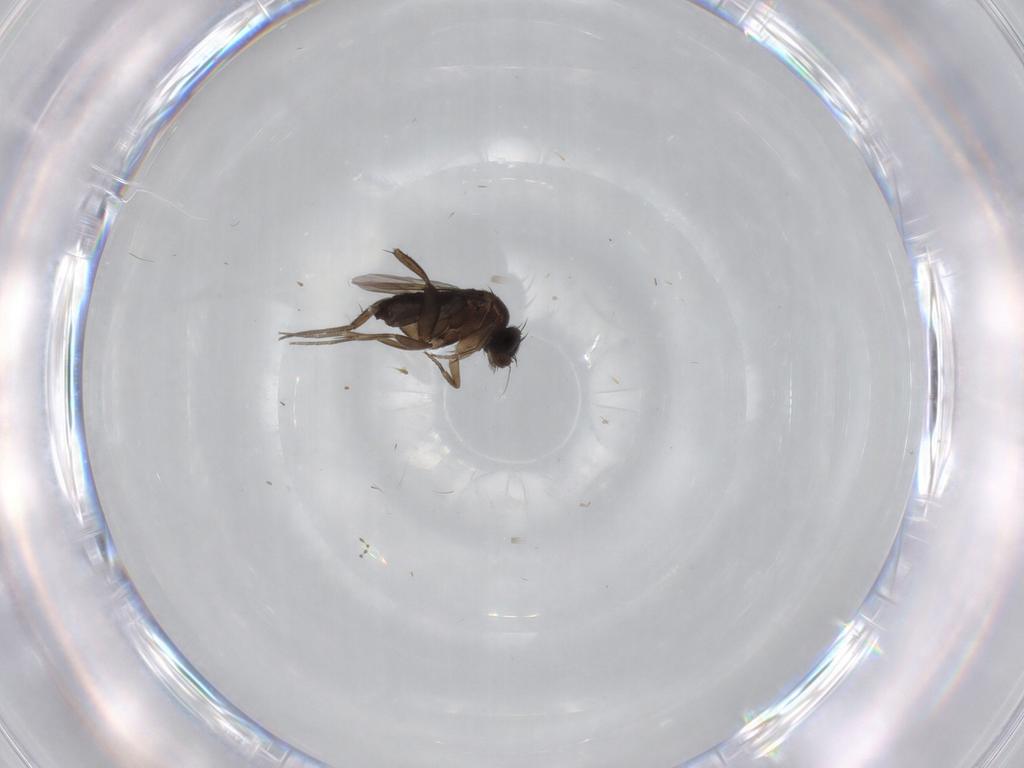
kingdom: Animalia
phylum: Arthropoda
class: Insecta
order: Diptera
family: Phoridae
